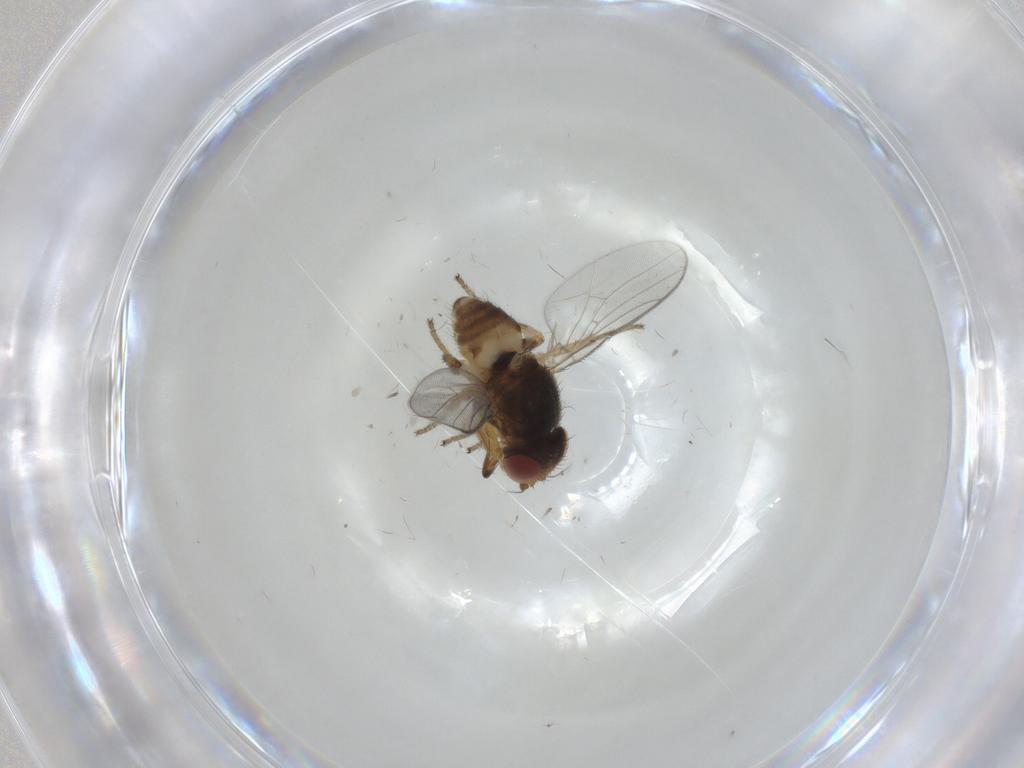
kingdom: Animalia
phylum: Arthropoda
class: Insecta
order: Diptera
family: Chloropidae
